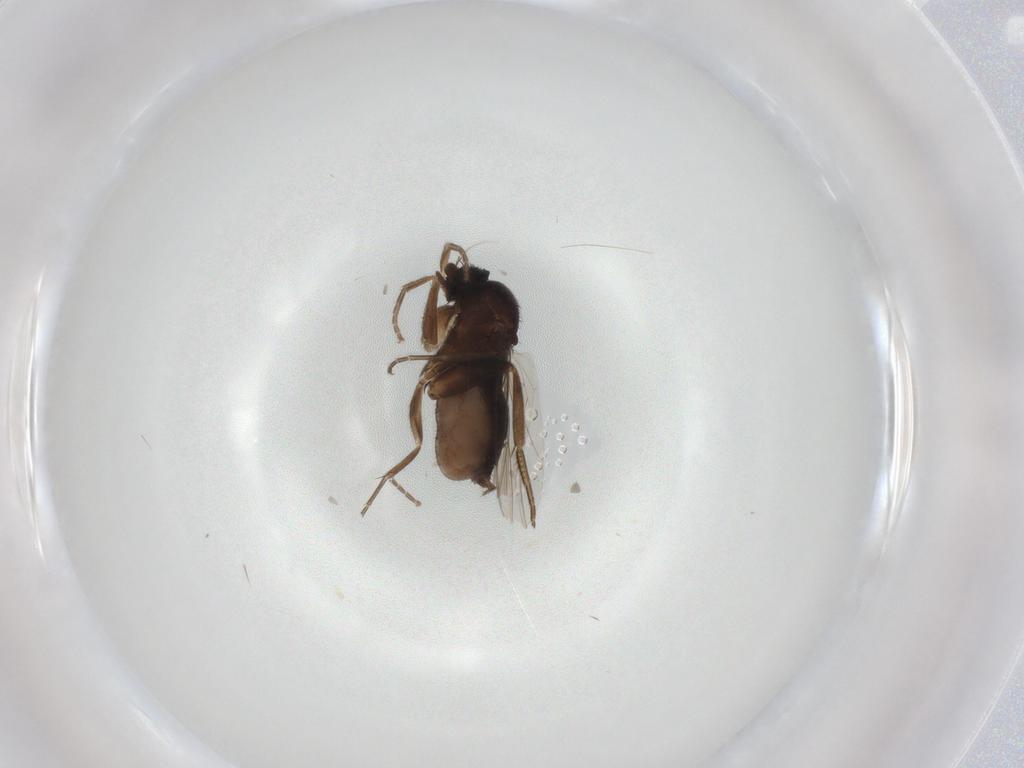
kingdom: Animalia
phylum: Arthropoda
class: Insecta
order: Diptera
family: Phoridae
